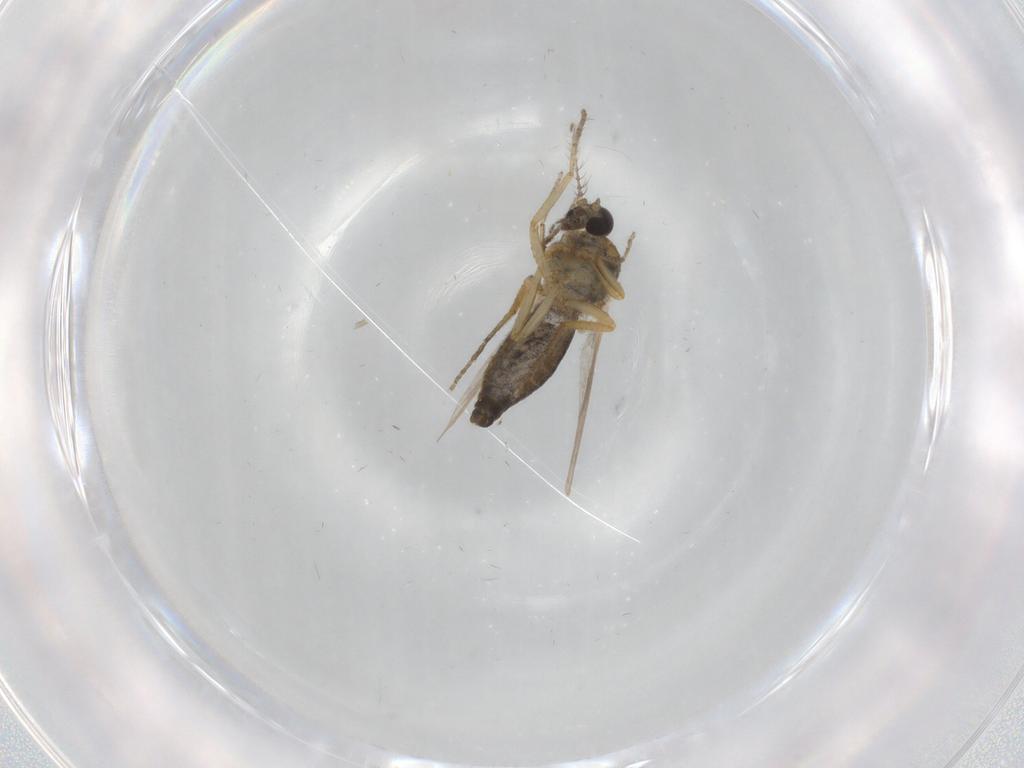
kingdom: Animalia
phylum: Arthropoda
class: Insecta
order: Diptera
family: Ceratopogonidae
